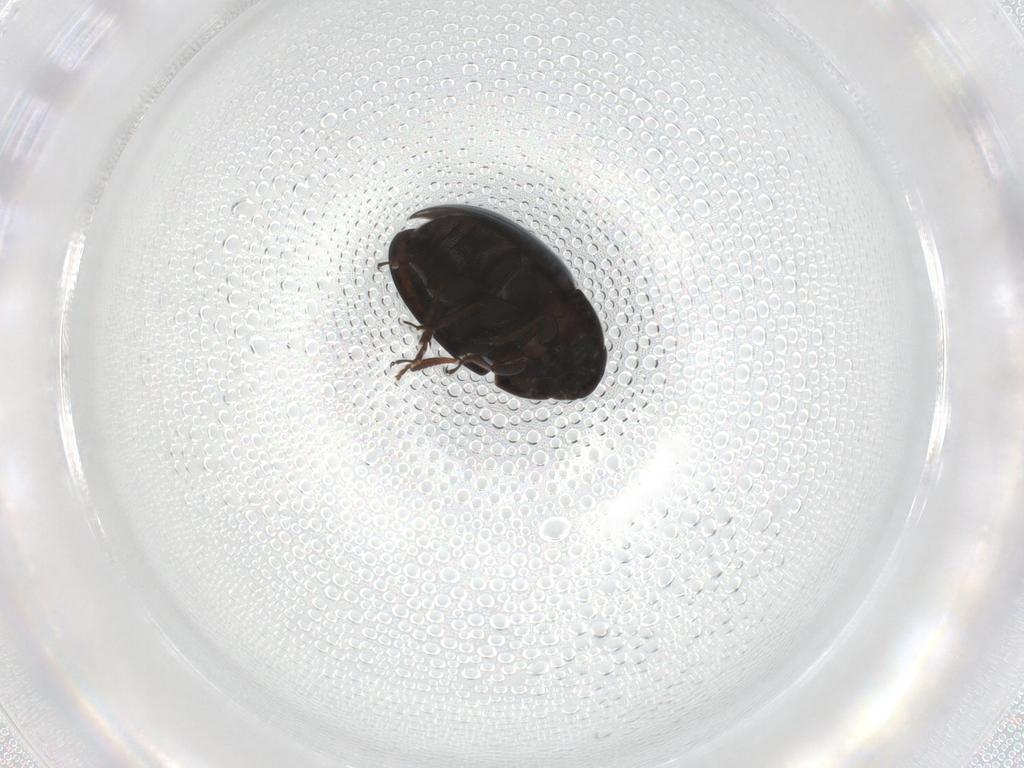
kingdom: Animalia
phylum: Arthropoda
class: Insecta
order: Coleoptera
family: Phalacridae
